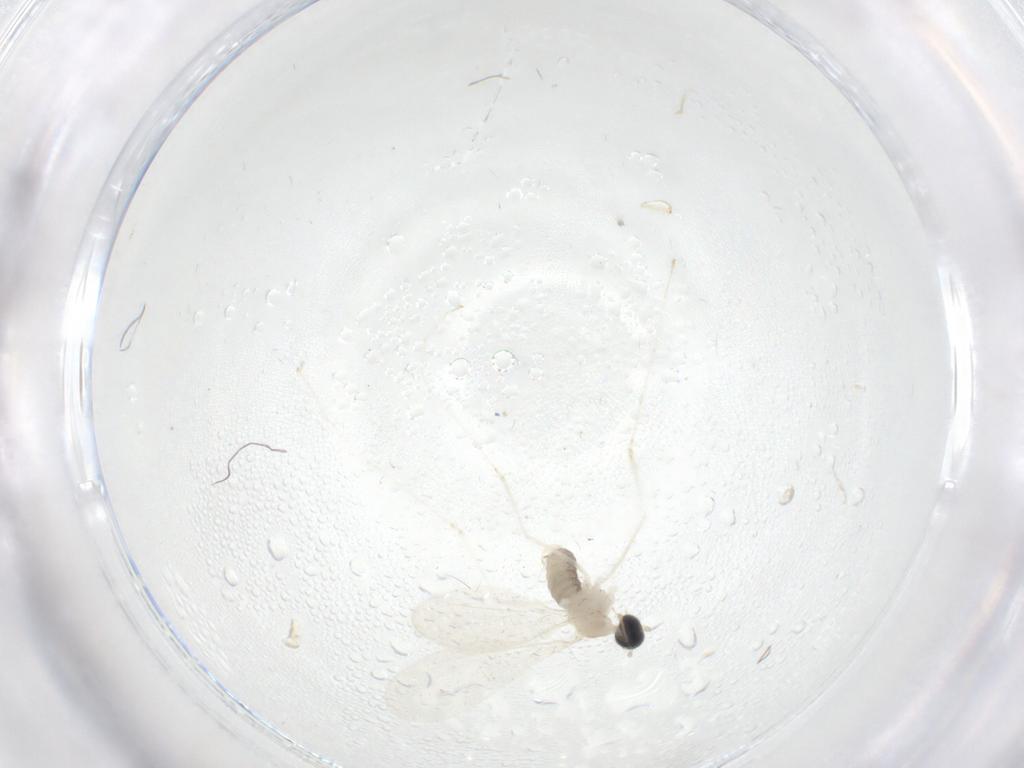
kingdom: Animalia
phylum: Arthropoda
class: Insecta
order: Diptera
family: Cecidomyiidae
